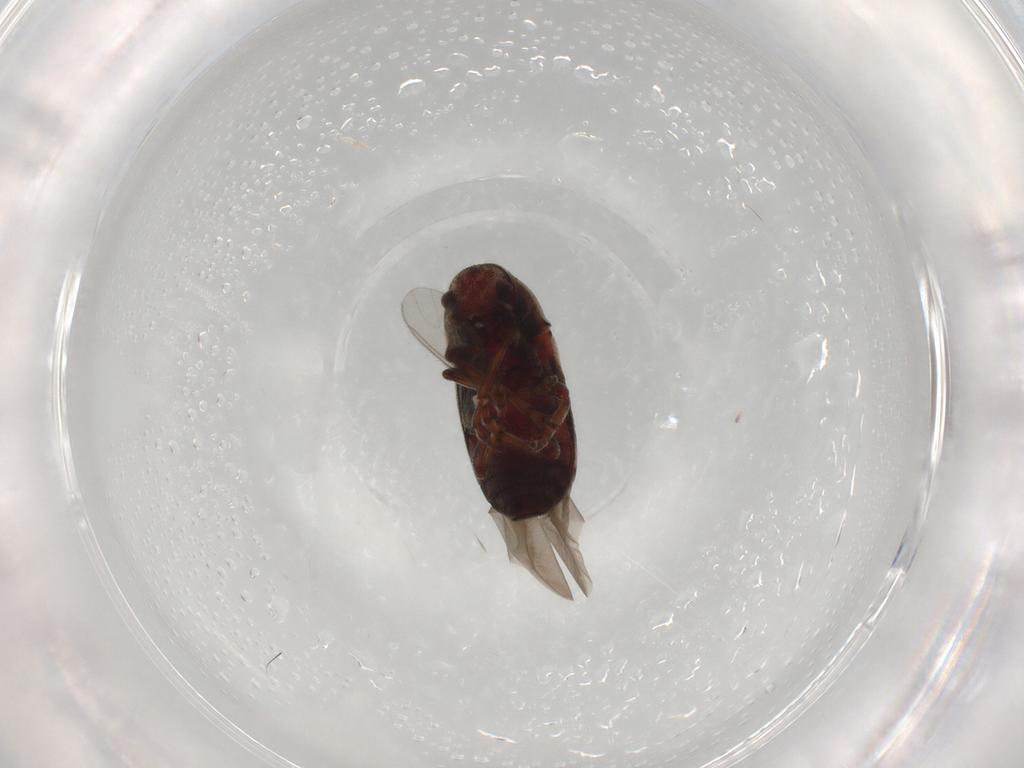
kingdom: Animalia
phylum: Arthropoda
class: Insecta
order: Coleoptera
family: Anthribidae
